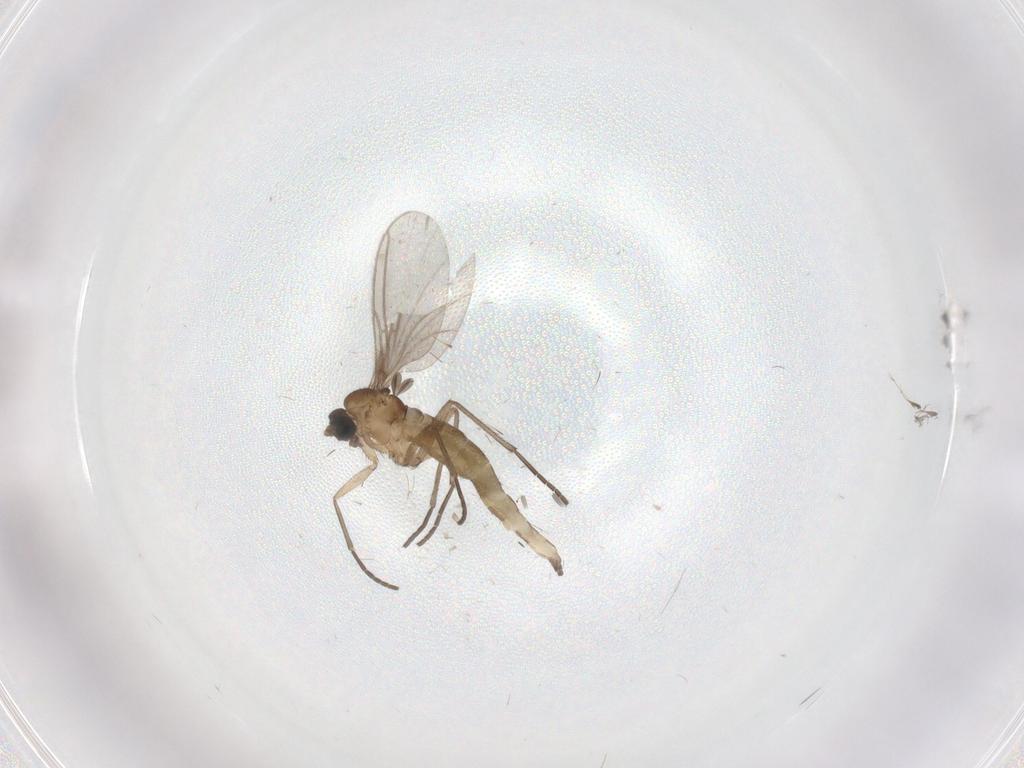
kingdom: Animalia
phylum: Arthropoda
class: Insecta
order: Diptera
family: Sciaridae
